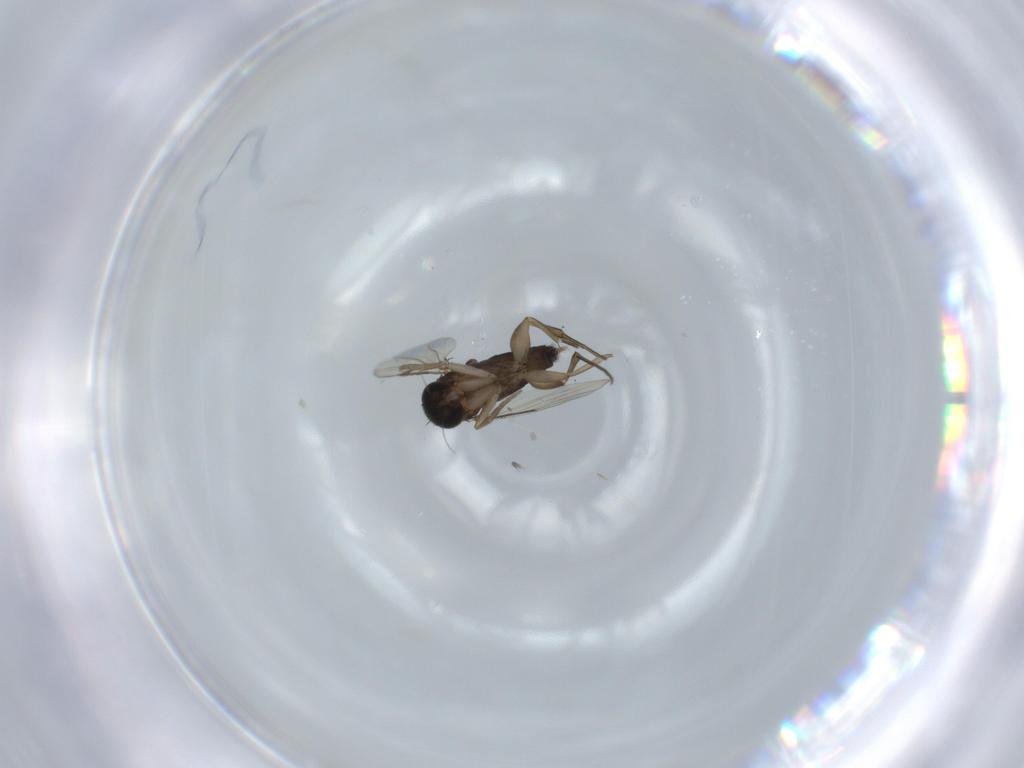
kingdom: Animalia
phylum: Arthropoda
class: Insecta
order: Diptera
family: Phoridae
